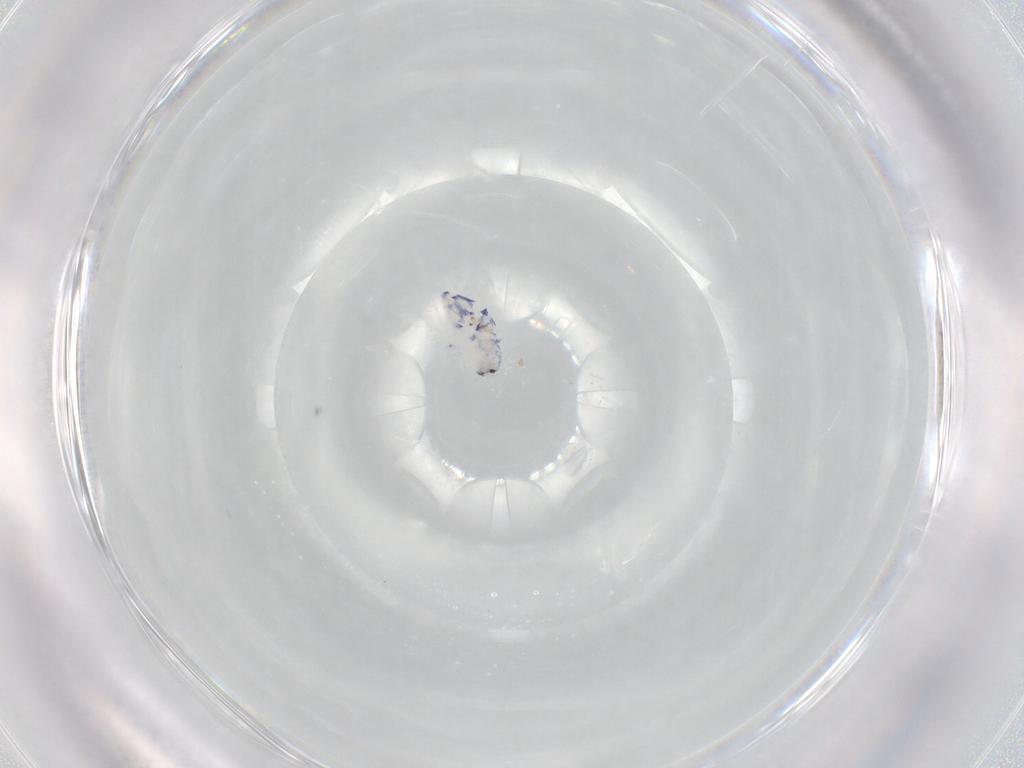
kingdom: Animalia
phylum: Arthropoda
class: Collembola
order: Entomobryomorpha
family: Entomobryidae
